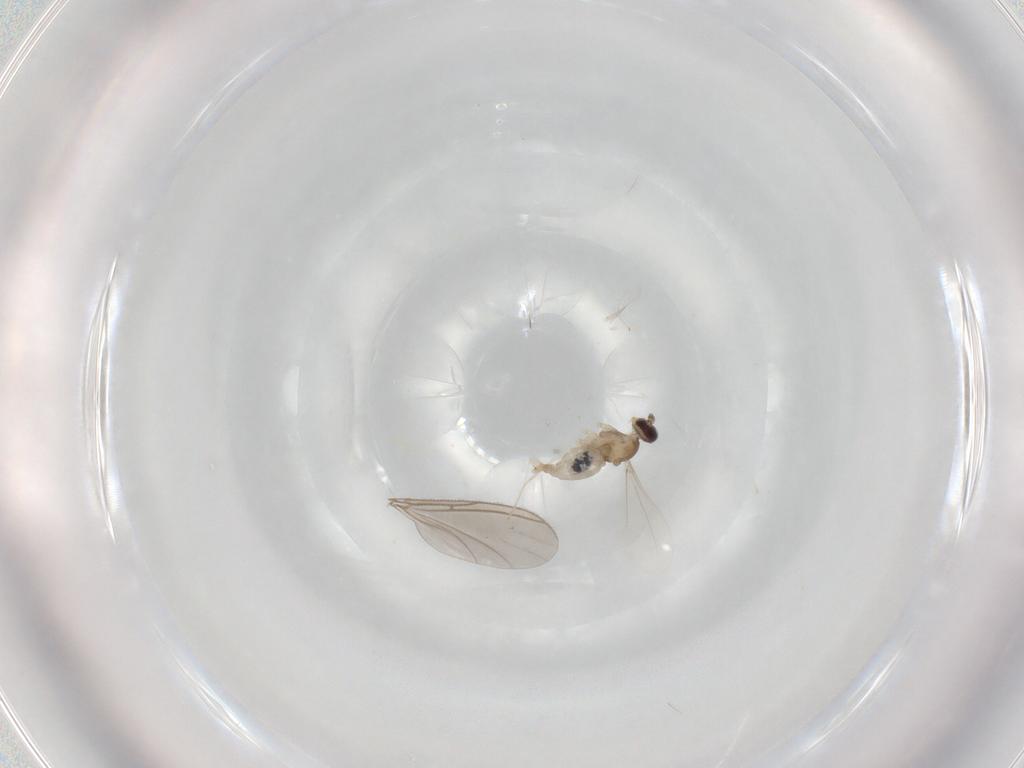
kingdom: Animalia
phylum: Arthropoda
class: Insecta
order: Diptera
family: Cecidomyiidae
